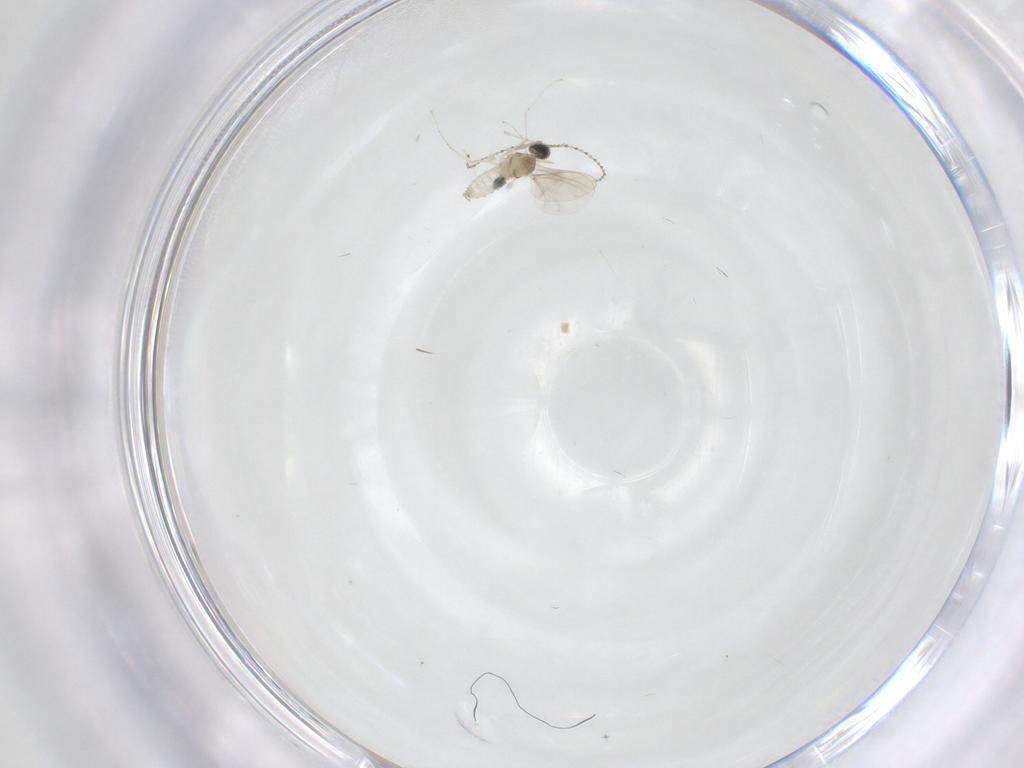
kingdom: Animalia
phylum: Arthropoda
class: Insecta
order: Diptera
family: Cecidomyiidae
